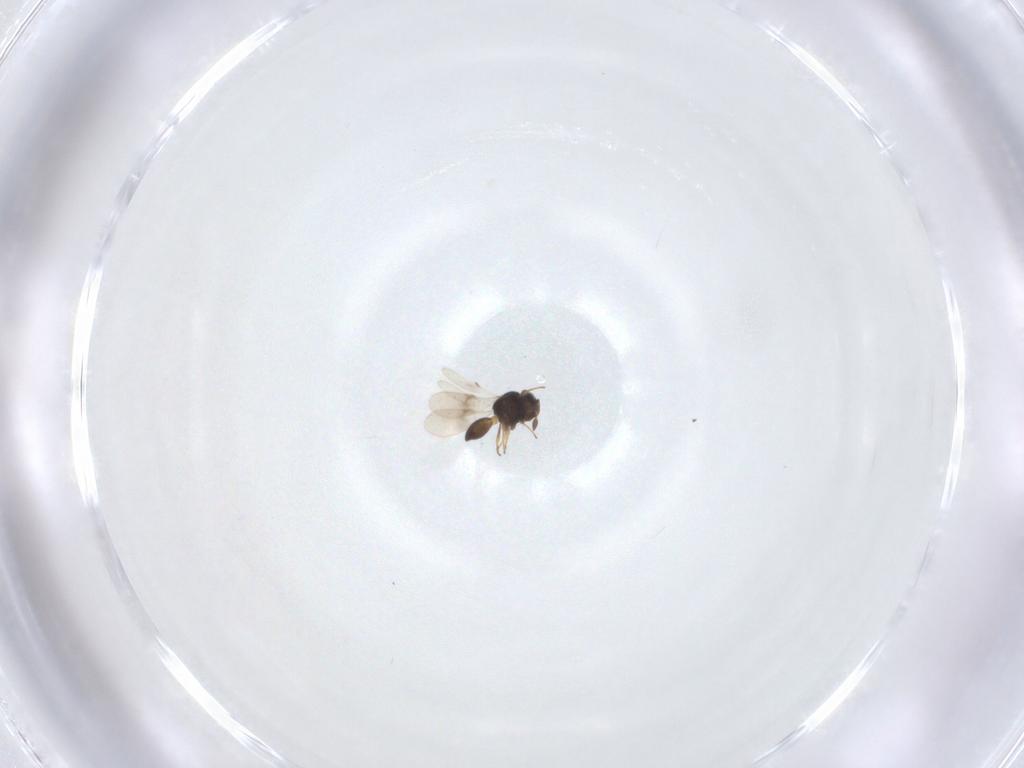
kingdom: Animalia
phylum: Arthropoda
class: Insecta
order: Hymenoptera
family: Scelionidae
